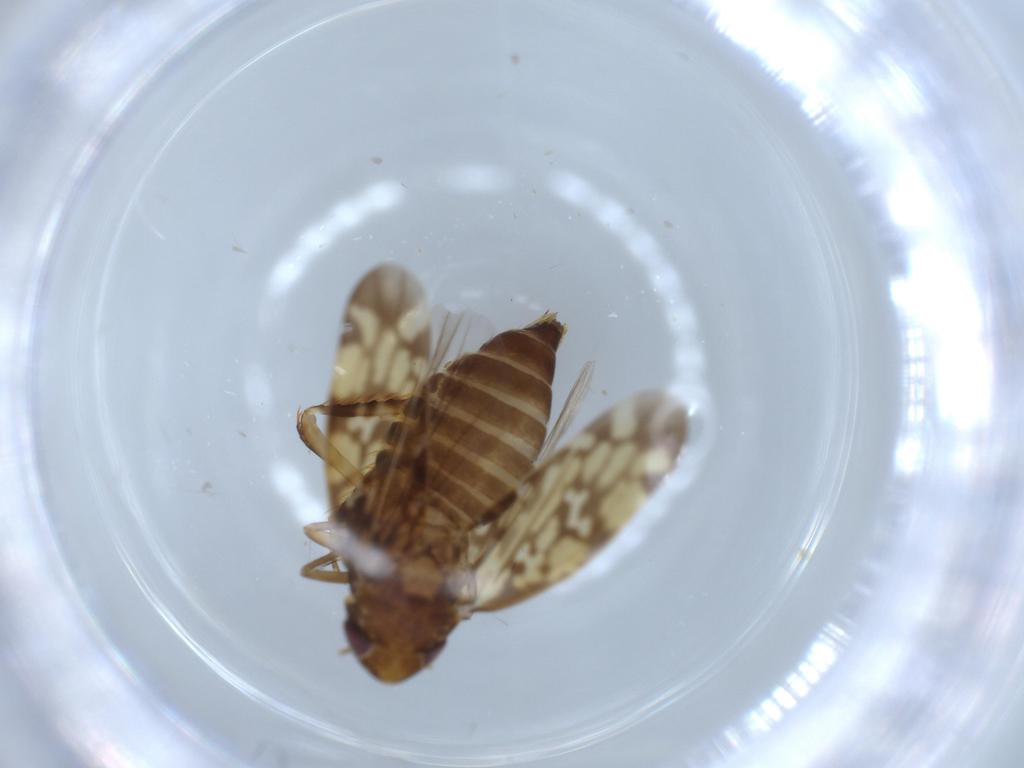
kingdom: Animalia
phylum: Arthropoda
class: Insecta
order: Hemiptera
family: Cicadellidae
